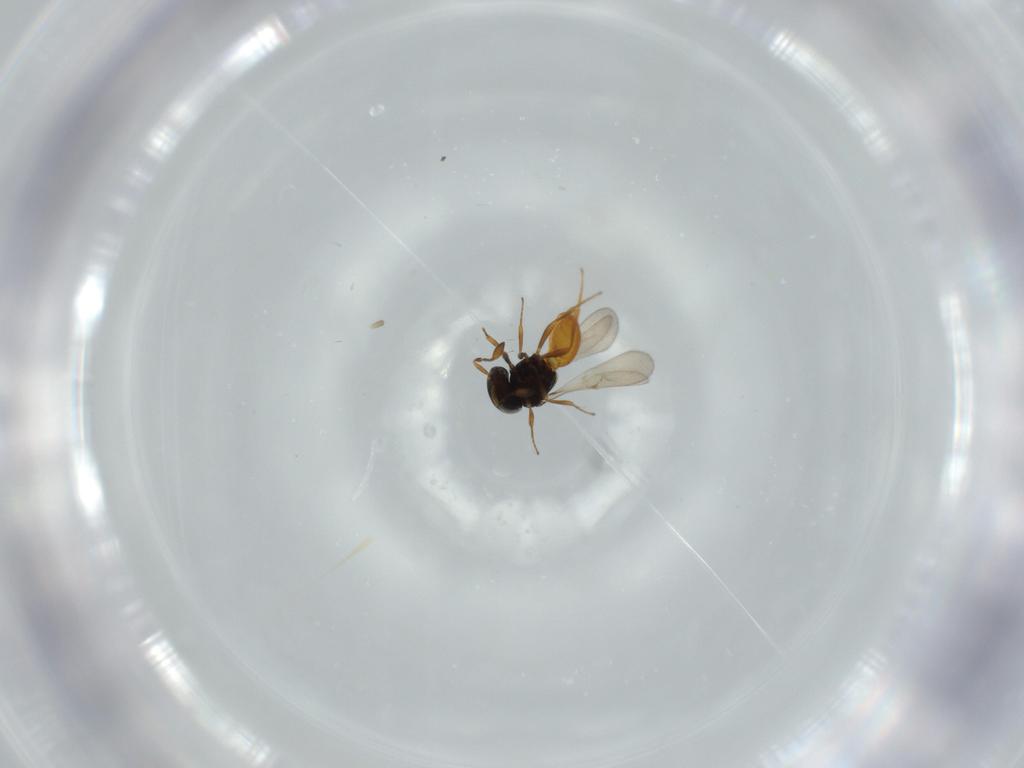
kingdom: Animalia
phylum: Arthropoda
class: Insecta
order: Hymenoptera
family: Scelionidae
